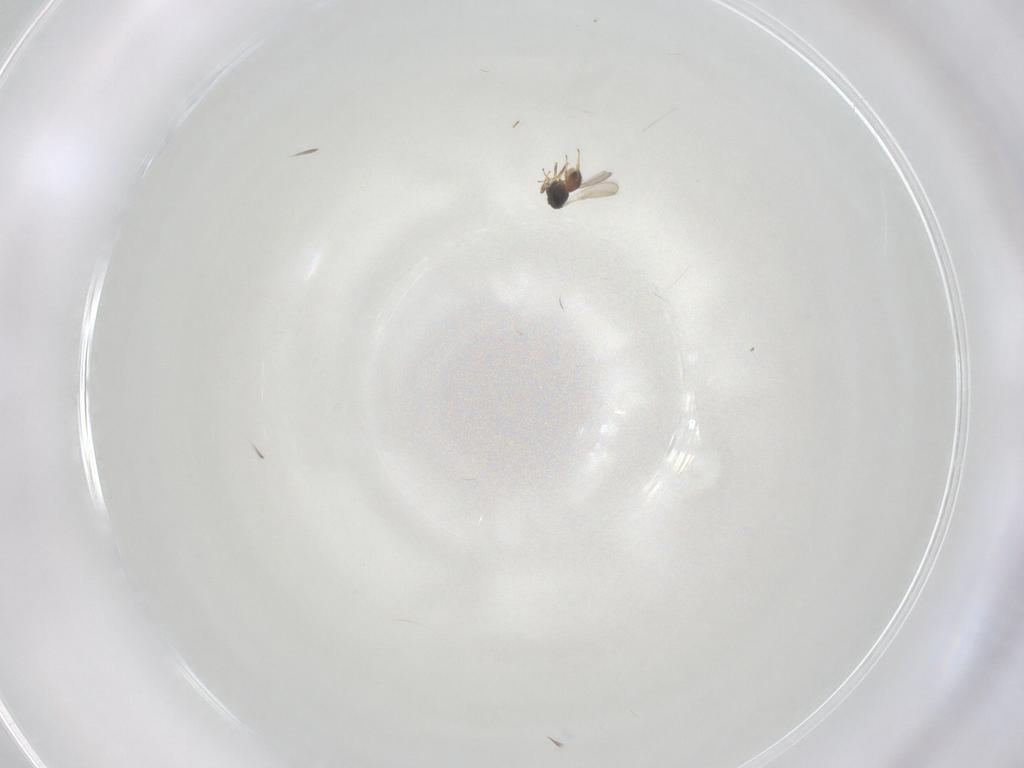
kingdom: Animalia
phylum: Arthropoda
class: Insecta
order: Hymenoptera
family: Scelionidae
